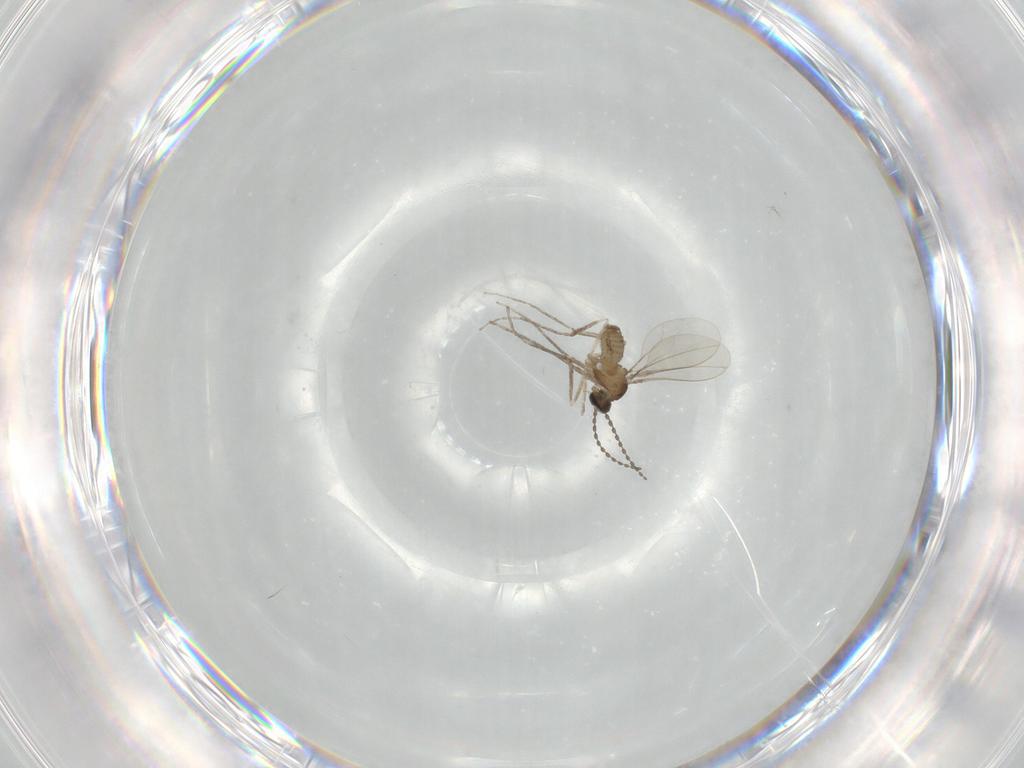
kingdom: Animalia
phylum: Arthropoda
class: Insecta
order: Diptera
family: Cecidomyiidae
